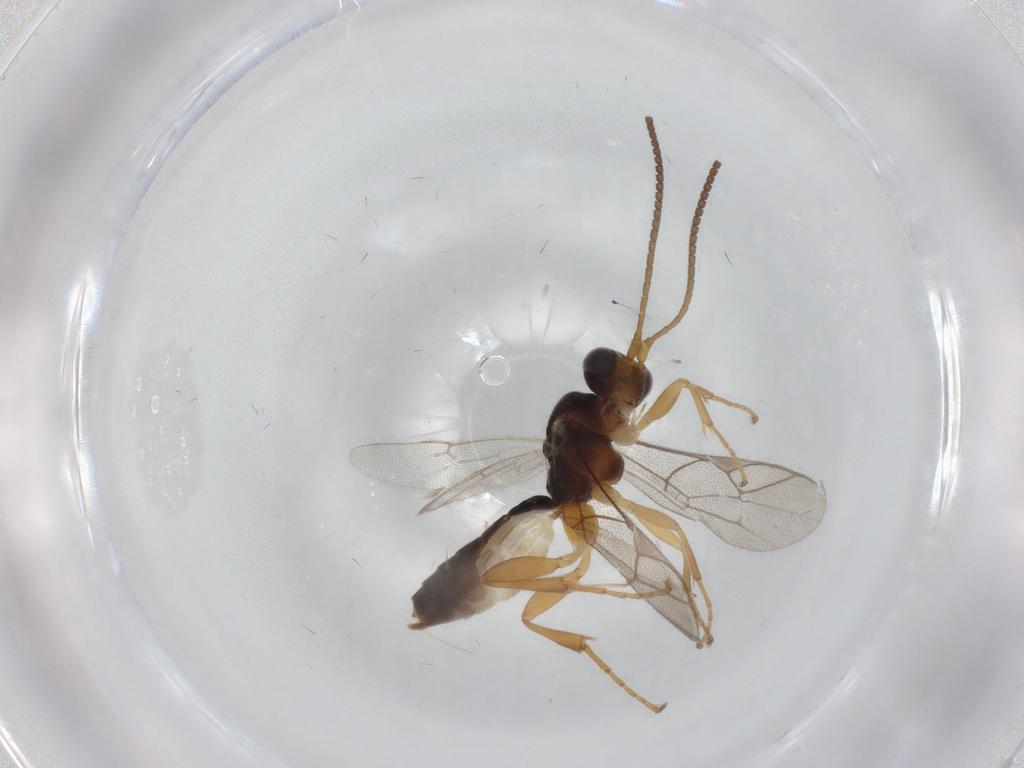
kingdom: Animalia
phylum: Arthropoda
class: Insecta
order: Hymenoptera
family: Ichneumonidae
